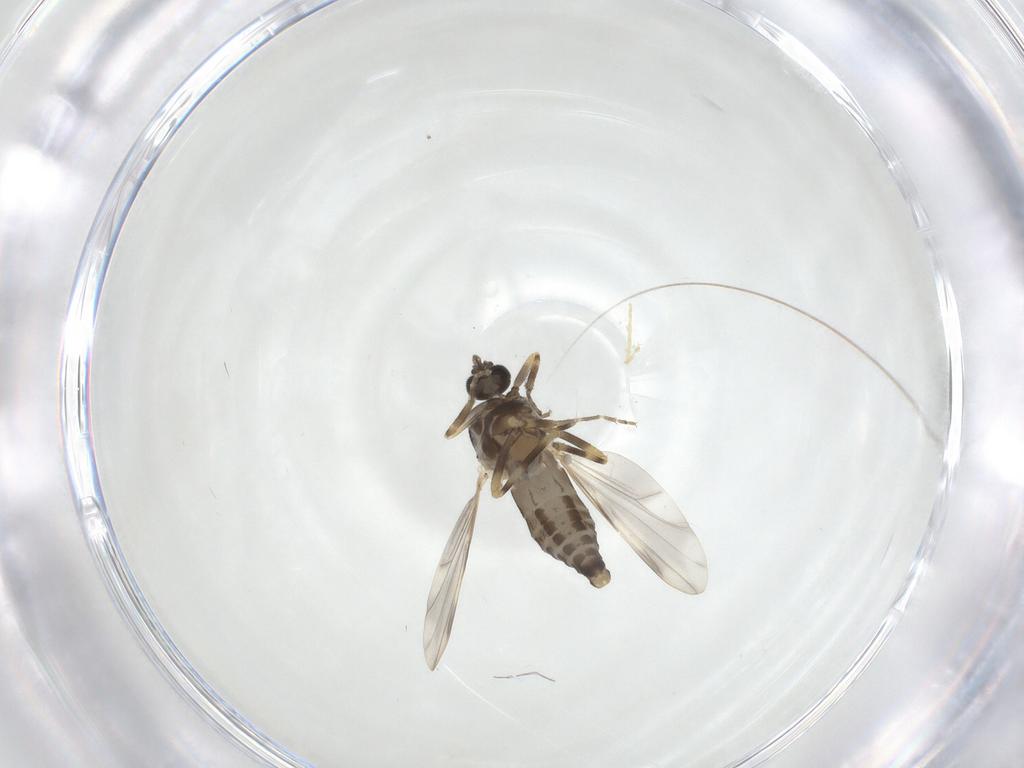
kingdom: Animalia
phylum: Arthropoda
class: Insecta
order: Diptera
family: Ceratopogonidae
